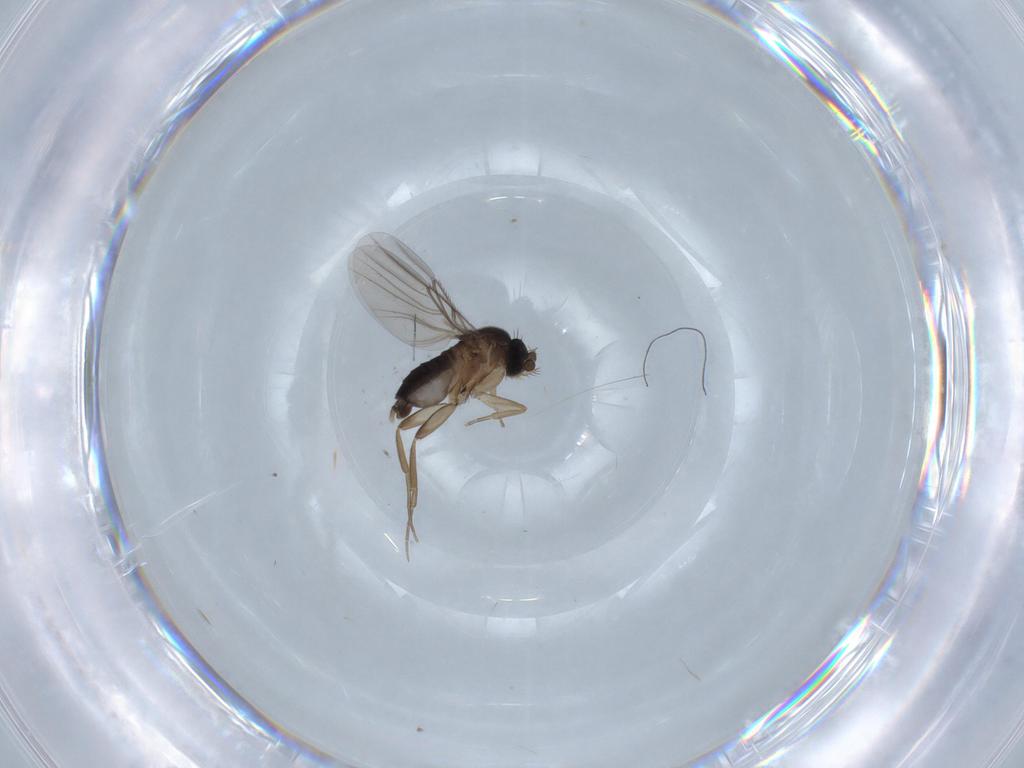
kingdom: Animalia
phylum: Arthropoda
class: Insecta
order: Diptera
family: Phoridae
